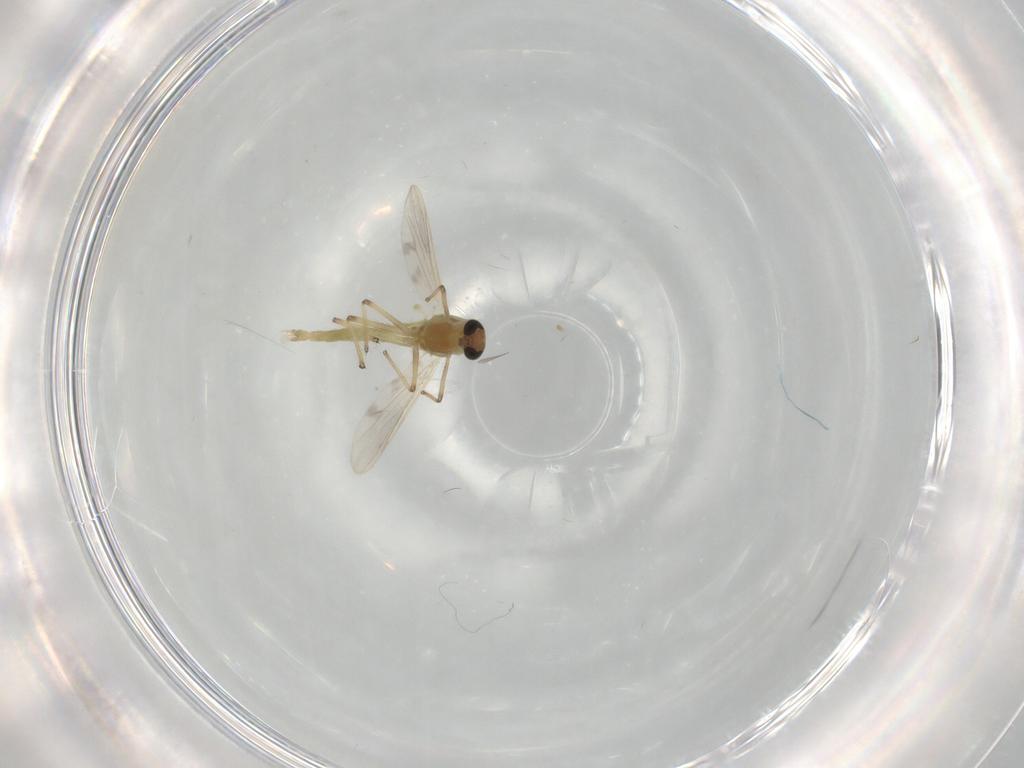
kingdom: Animalia
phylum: Arthropoda
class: Insecta
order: Diptera
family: Chironomidae
